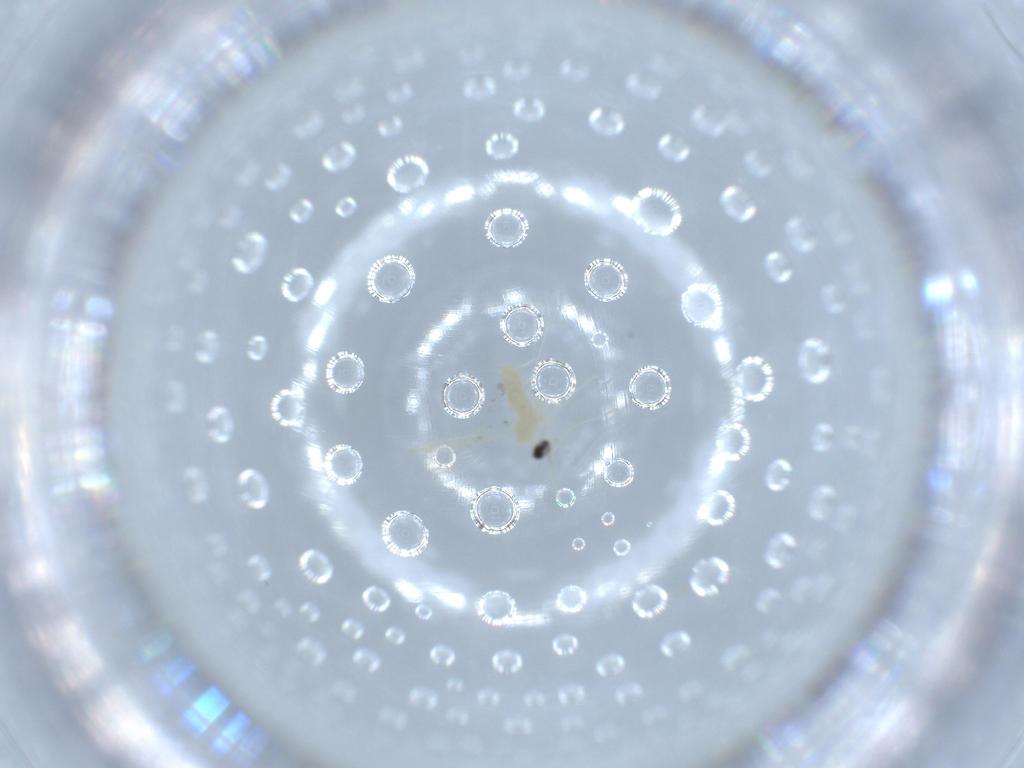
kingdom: Animalia
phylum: Arthropoda
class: Insecta
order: Diptera
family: Cecidomyiidae
